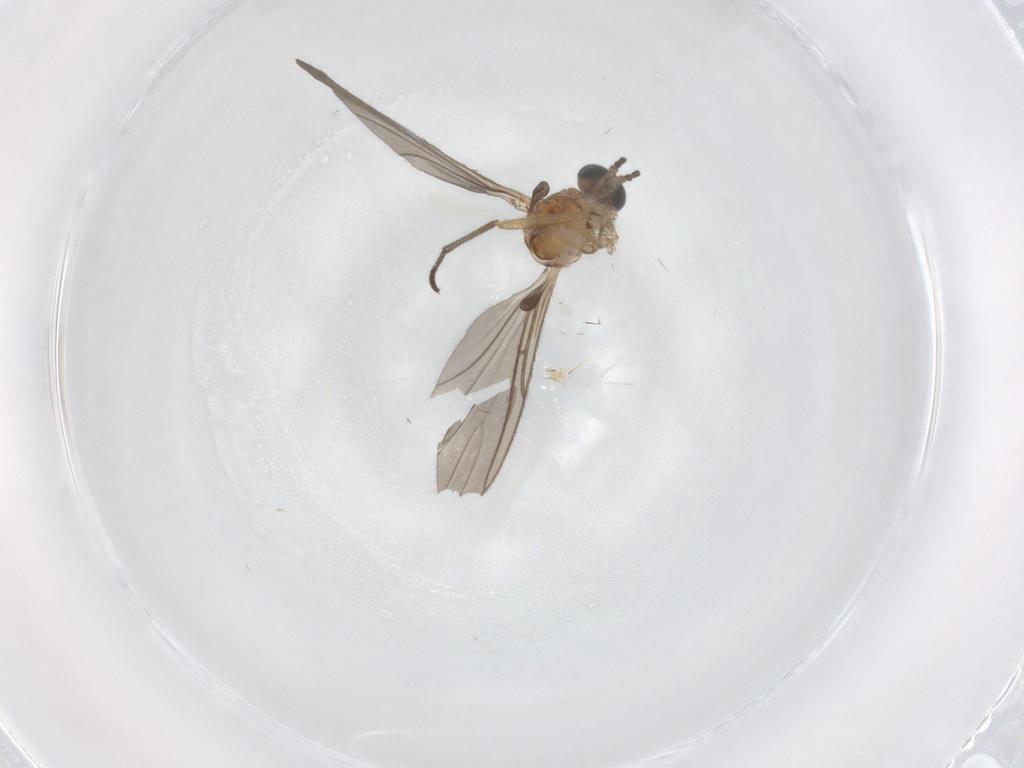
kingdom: Animalia
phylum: Arthropoda
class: Insecta
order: Diptera
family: Sciaridae
